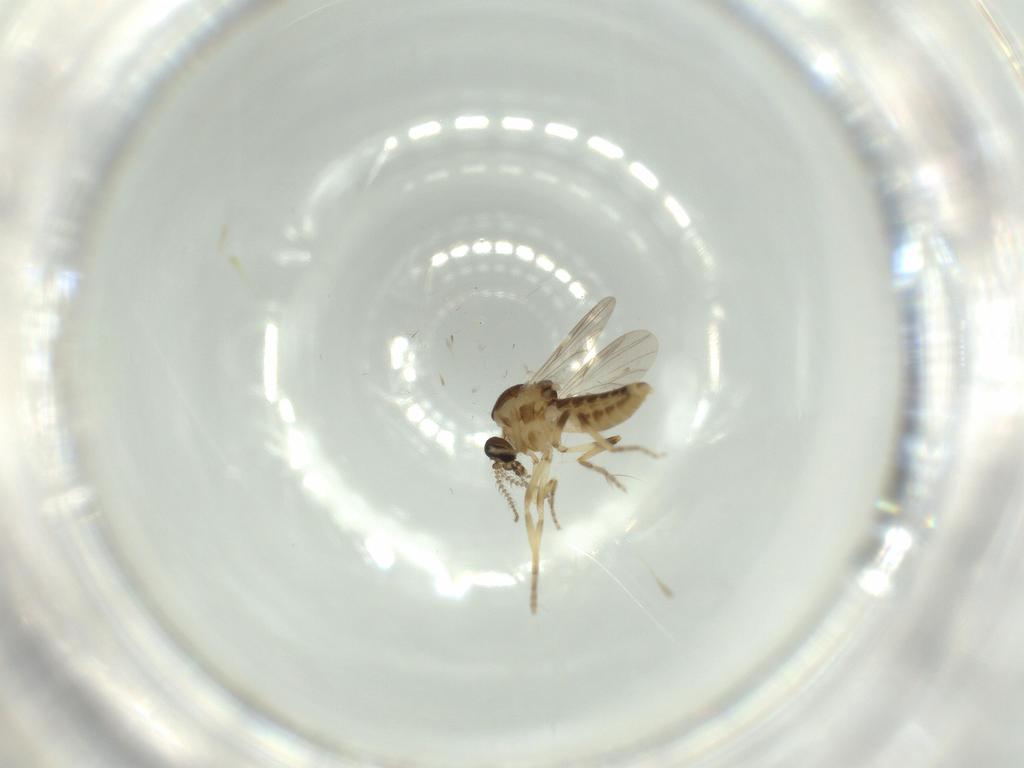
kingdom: Animalia
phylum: Arthropoda
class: Insecta
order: Diptera
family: Ceratopogonidae
